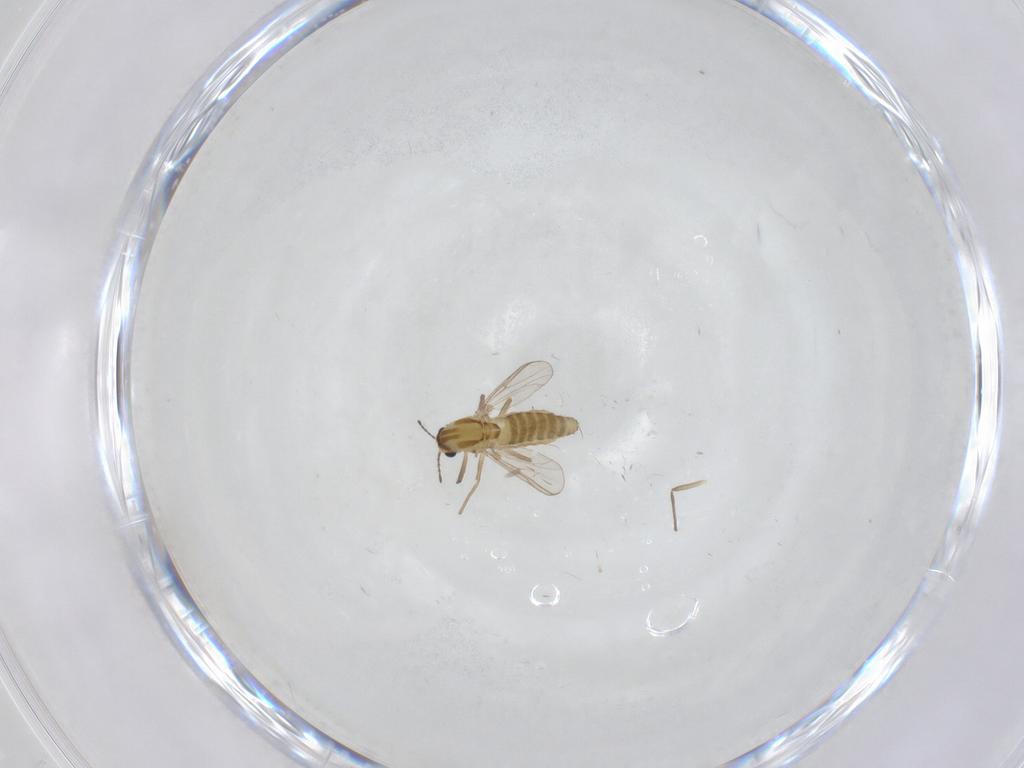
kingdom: Animalia
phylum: Arthropoda
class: Insecta
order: Diptera
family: Chironomidae
